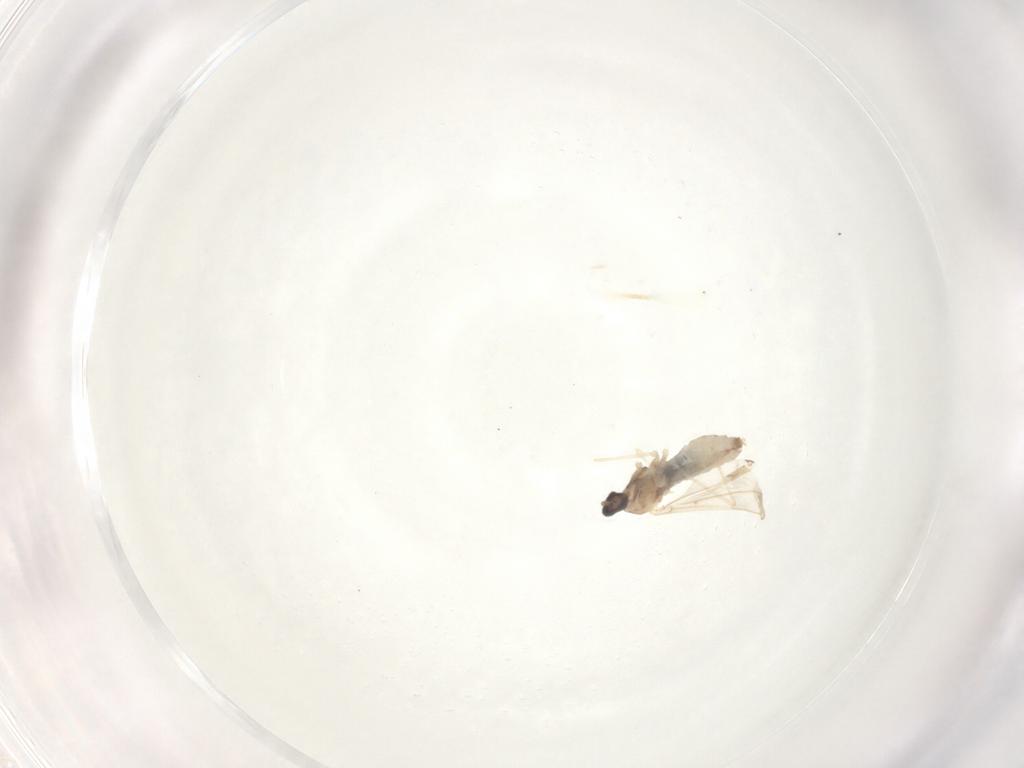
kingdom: Animalia
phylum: Arthropoda
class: Insecta
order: Diptera
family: Cecidomyiidae
